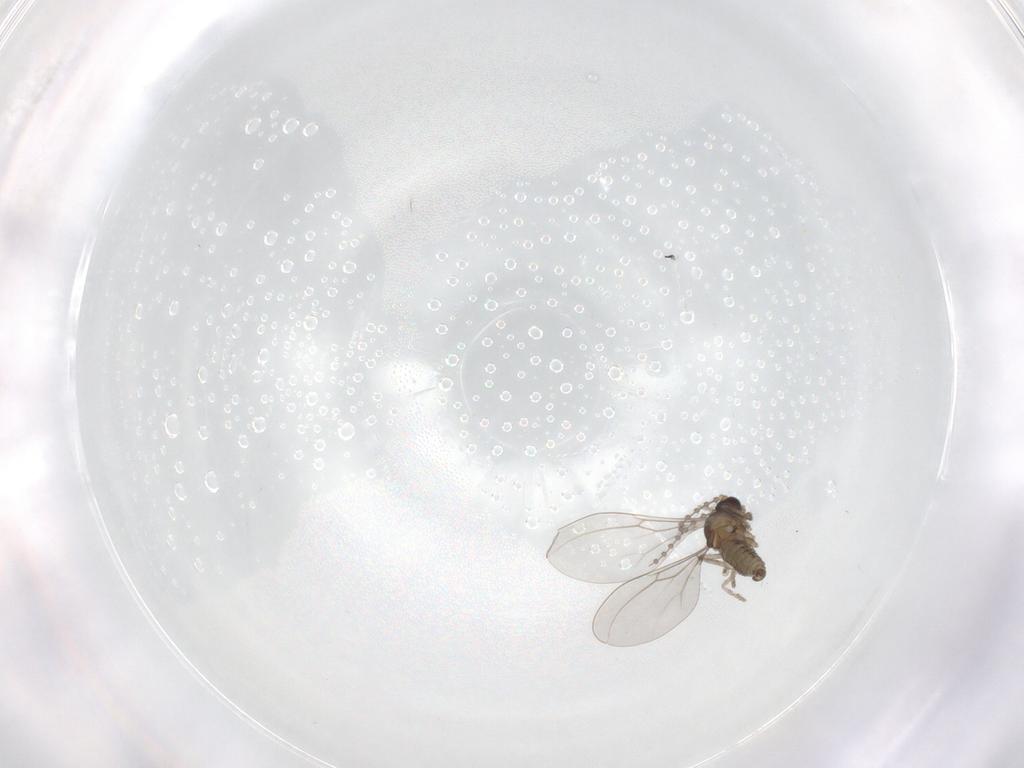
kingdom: Animalia
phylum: Arthropoda
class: Insecta
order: Diptera
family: Cecidomyiidae
